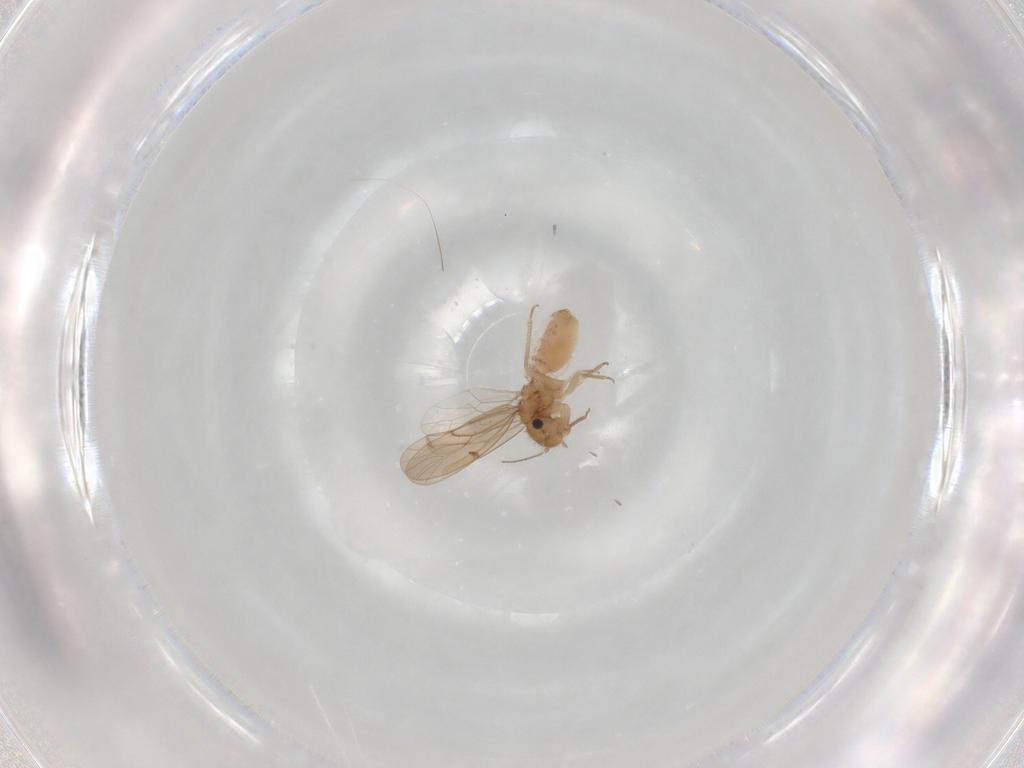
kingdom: Animalia
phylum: Arthropoda
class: Insecta
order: Psocodea
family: Ectopsocidae
